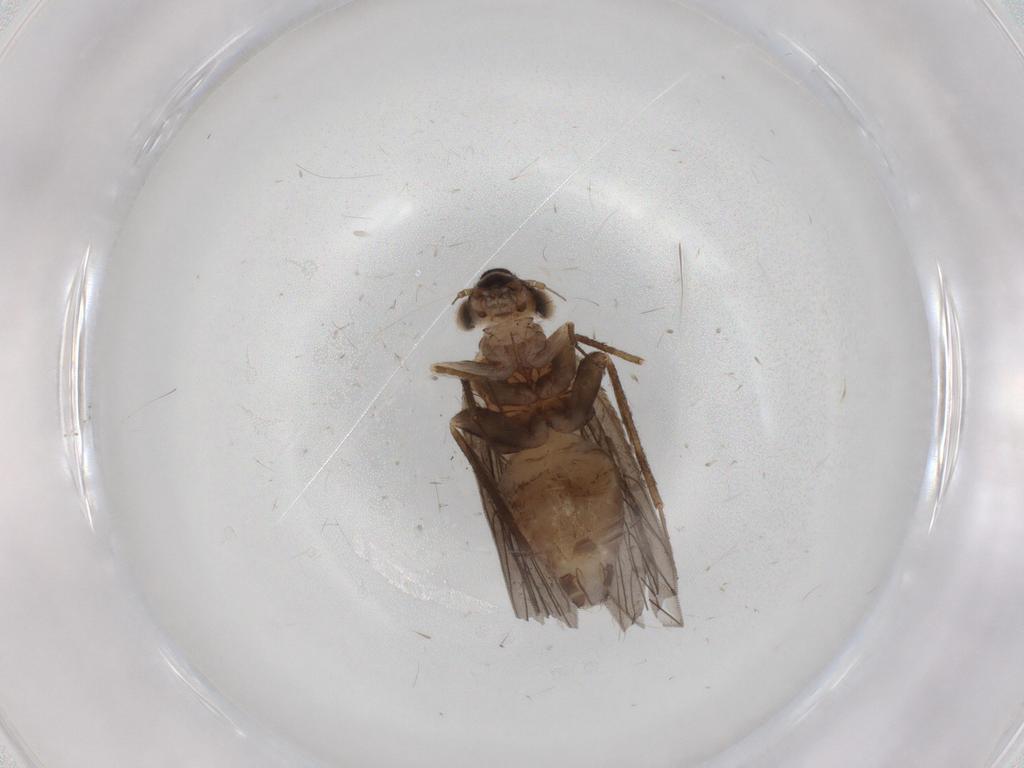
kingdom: Animalia
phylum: Arthropoda
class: Insecta
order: Psocodea
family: Lepidopsocidae
